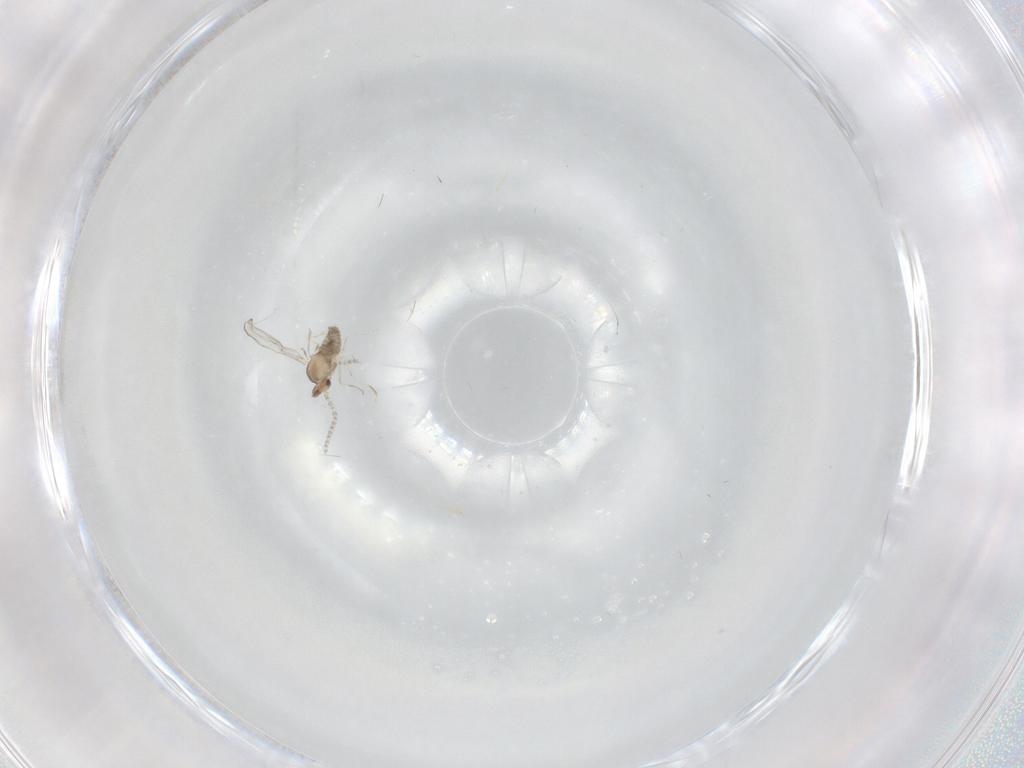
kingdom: Animalia
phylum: Arthropoda
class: Insecta
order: Diptera
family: Cecidomyiidae
